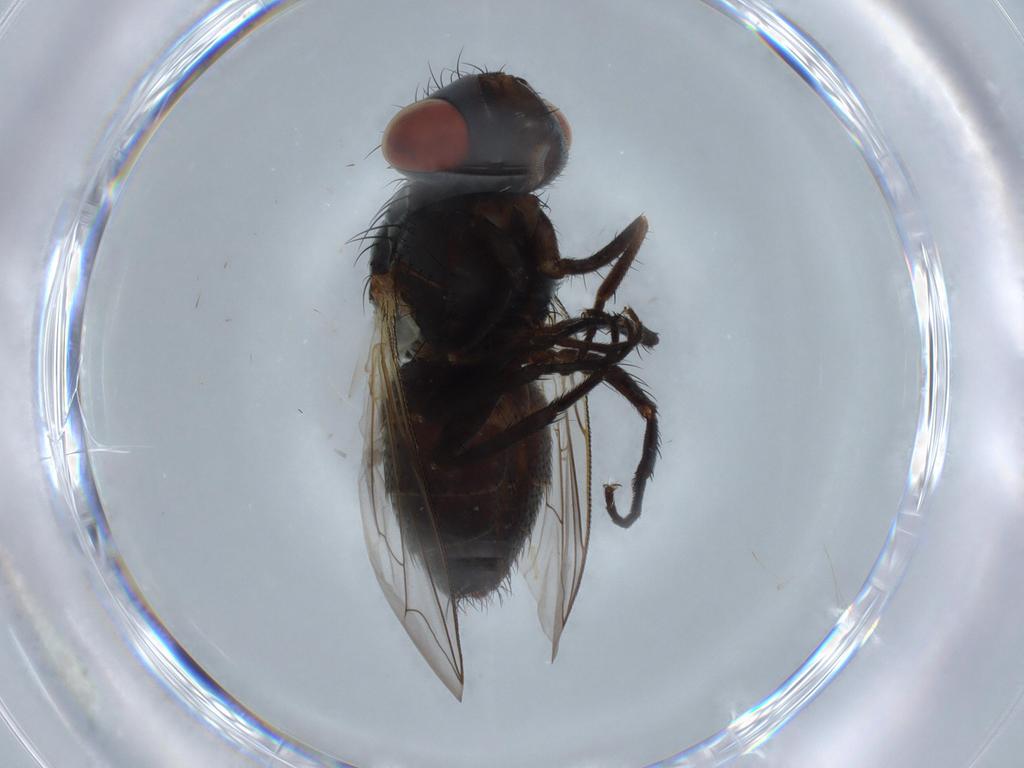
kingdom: Animalia
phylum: Arthropoda
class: Insecta
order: Diptera
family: Sarcophagidae
